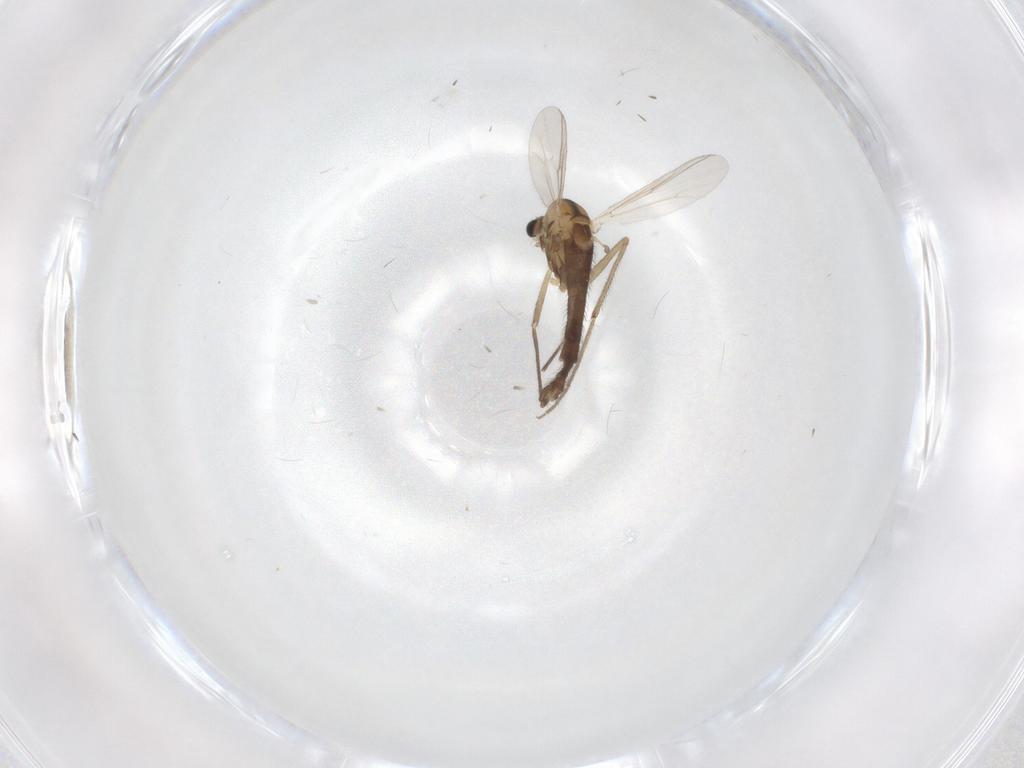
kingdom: Animalia
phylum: Arthropoda
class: Insecta
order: Diptera
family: Chironomidae
